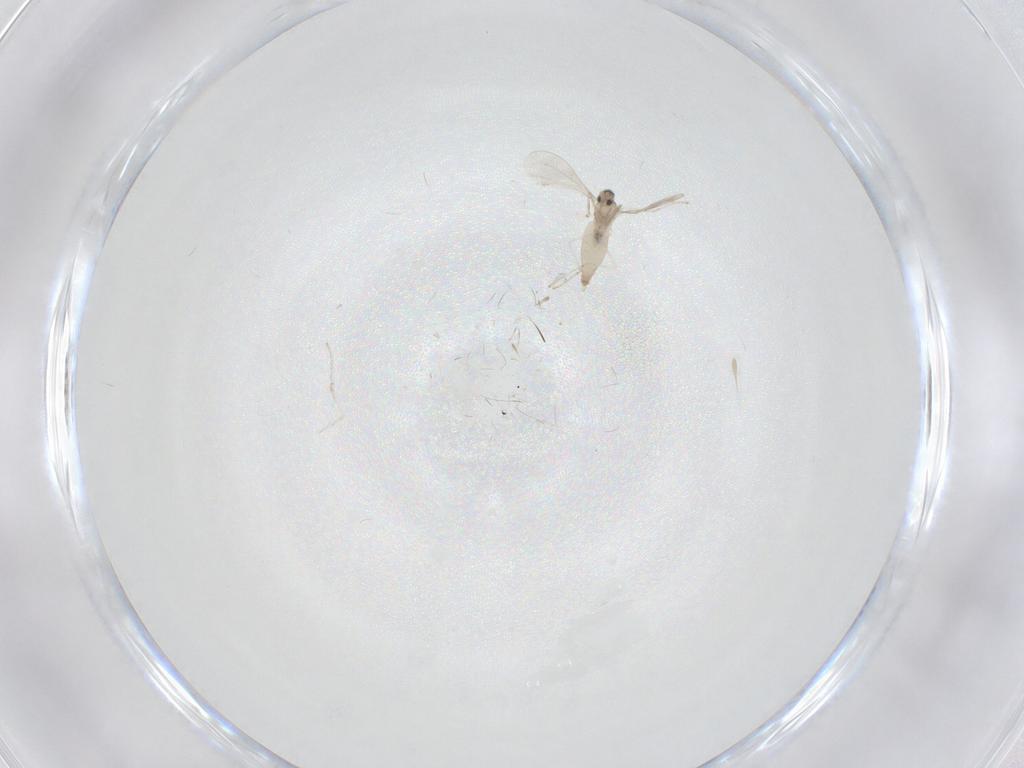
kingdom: Animalia
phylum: Arthropoda
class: Insecta
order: Diptera
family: Cecidomyiidae
